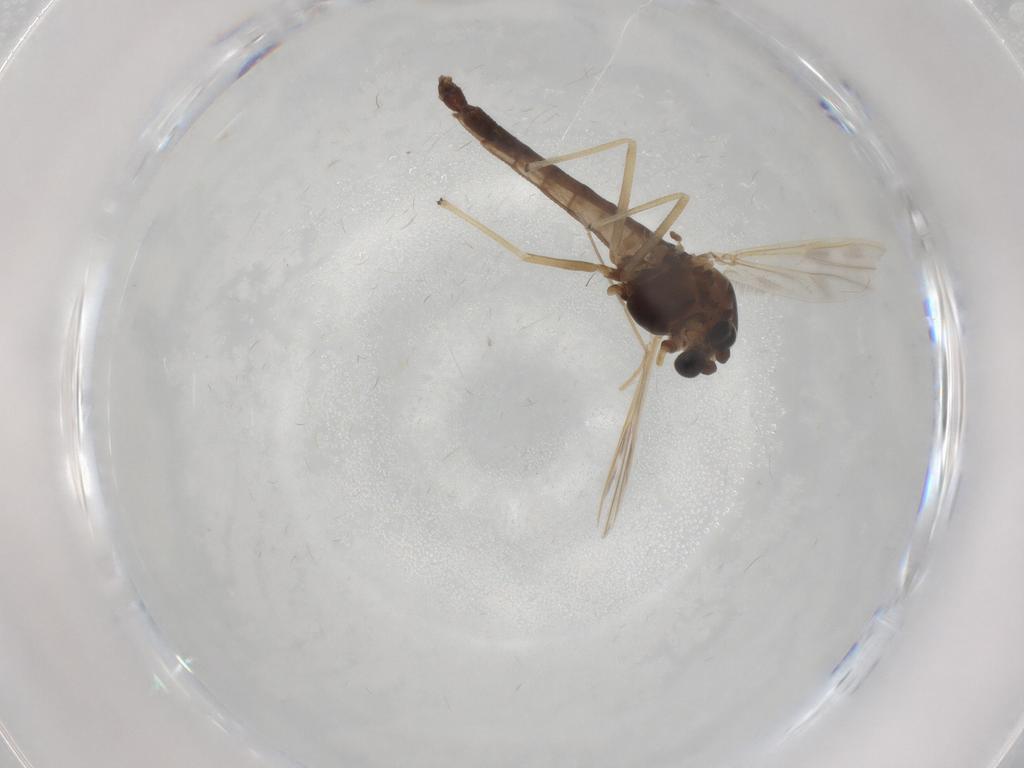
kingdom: Animalia
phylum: Arthropoda
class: Insecta
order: Diptera
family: Chironomidae
